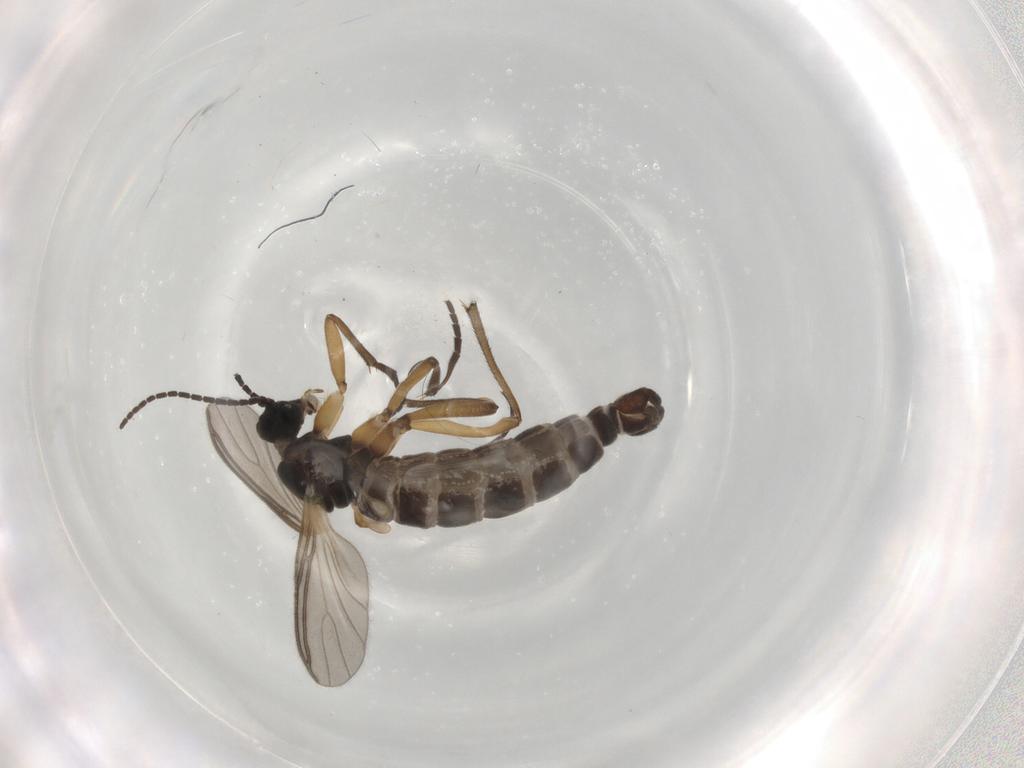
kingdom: Animalia
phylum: Arthropoda
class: Insecta
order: Diptera
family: Sciaridae
